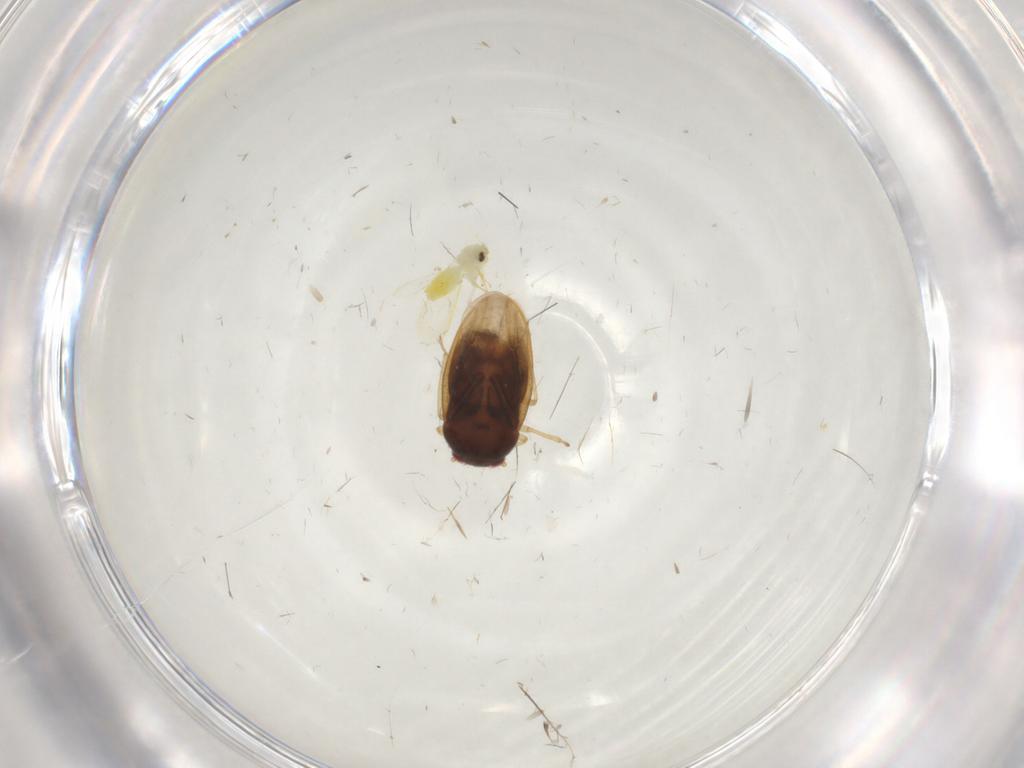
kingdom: Animalia
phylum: Arthropoda
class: Insecta
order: Hemiptera
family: Schizopteridae
